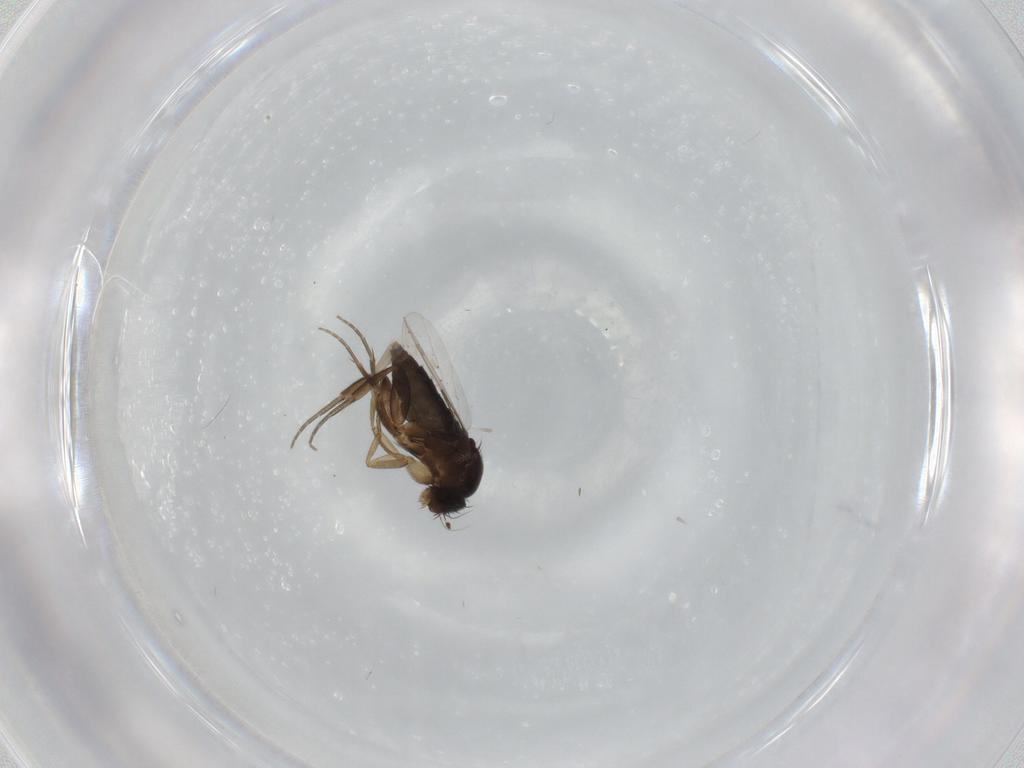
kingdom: Animalia
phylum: Arthropoda
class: Insecta
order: Diptera
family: Phoridae
